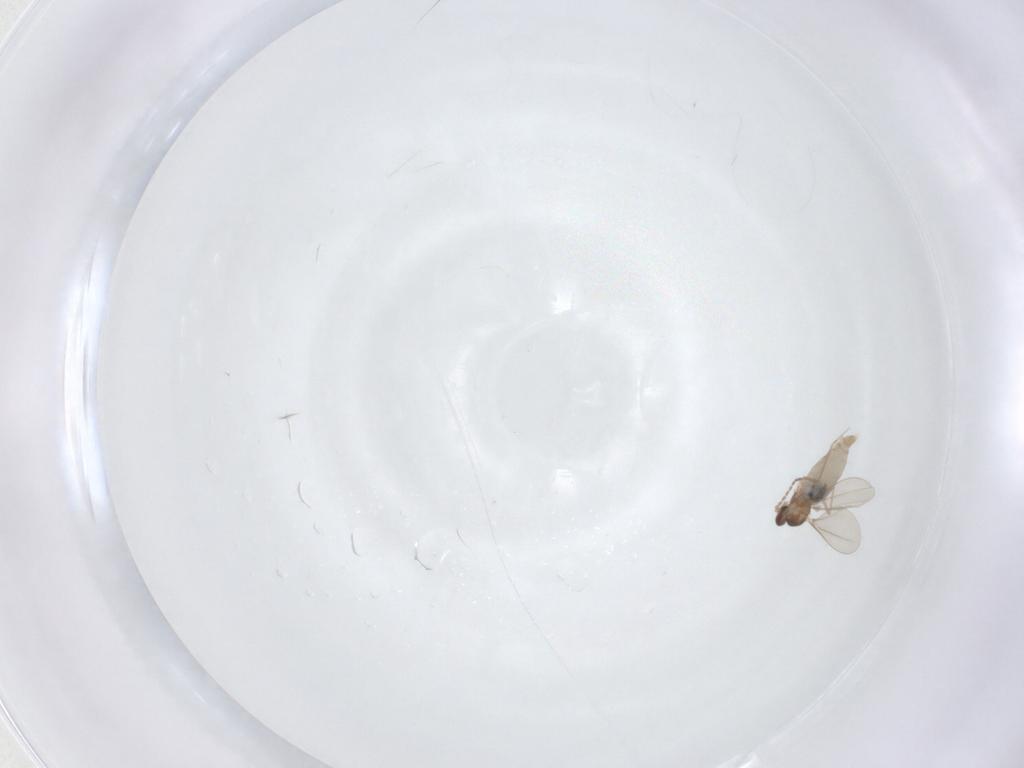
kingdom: Animalia
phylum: Arthropoda
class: Insecta
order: Diptera
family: Cecidomyiidae
